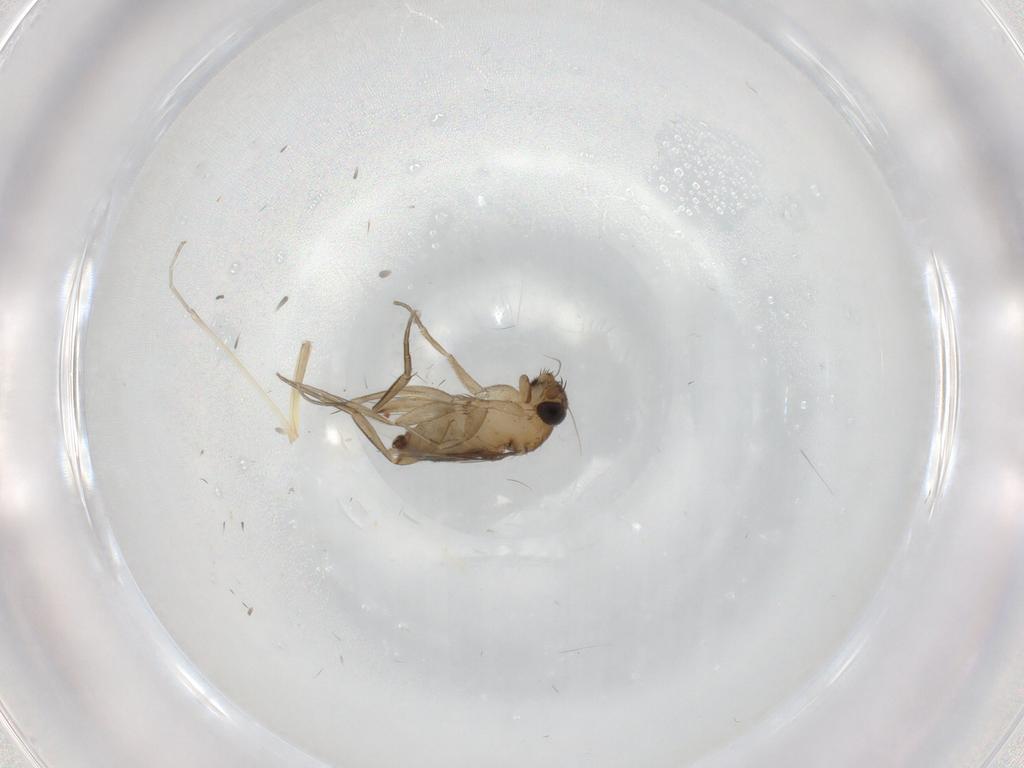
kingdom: Animalia
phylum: Arthropoda
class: Insecta
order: Diptera
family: Phoridae
